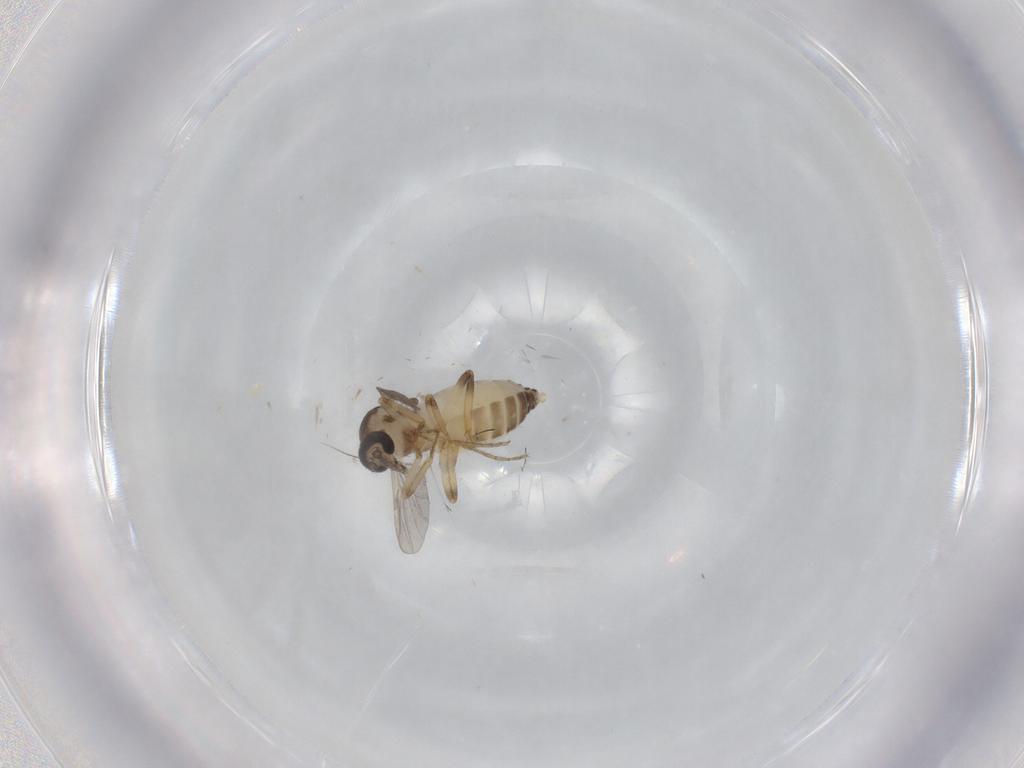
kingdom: Animalia
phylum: Arthropoda
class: Insecta
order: Diptera
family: Ceratopogonidae
